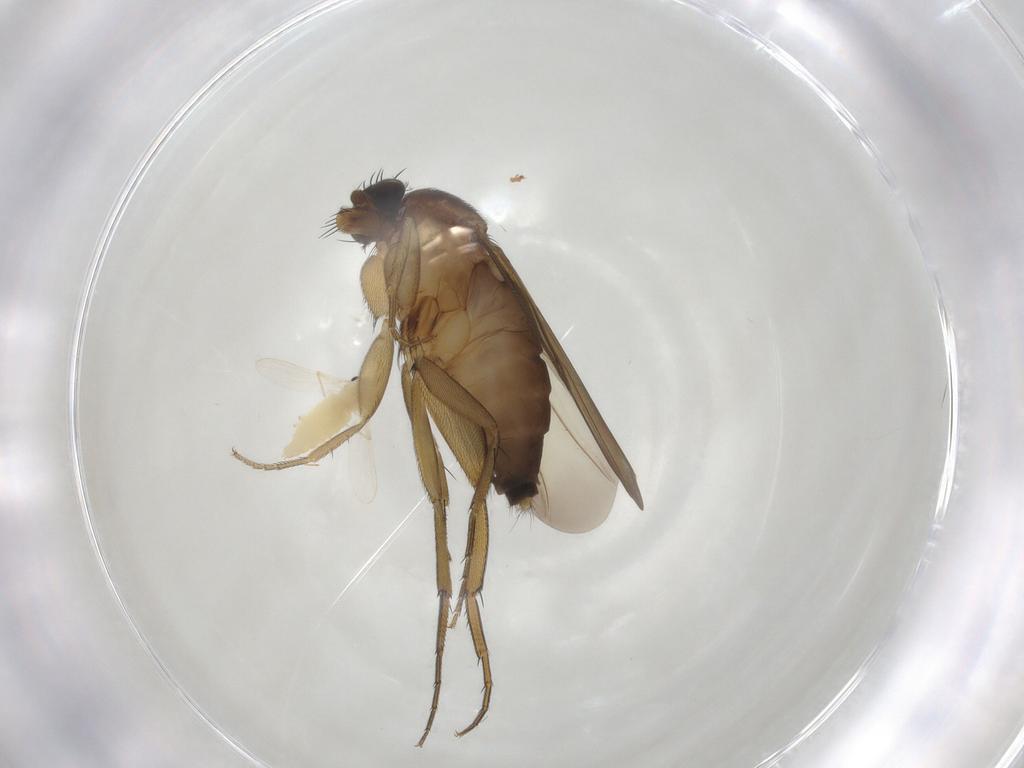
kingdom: Animalia
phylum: Arthropoda
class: Insecta
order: Diptera
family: Phoridae
